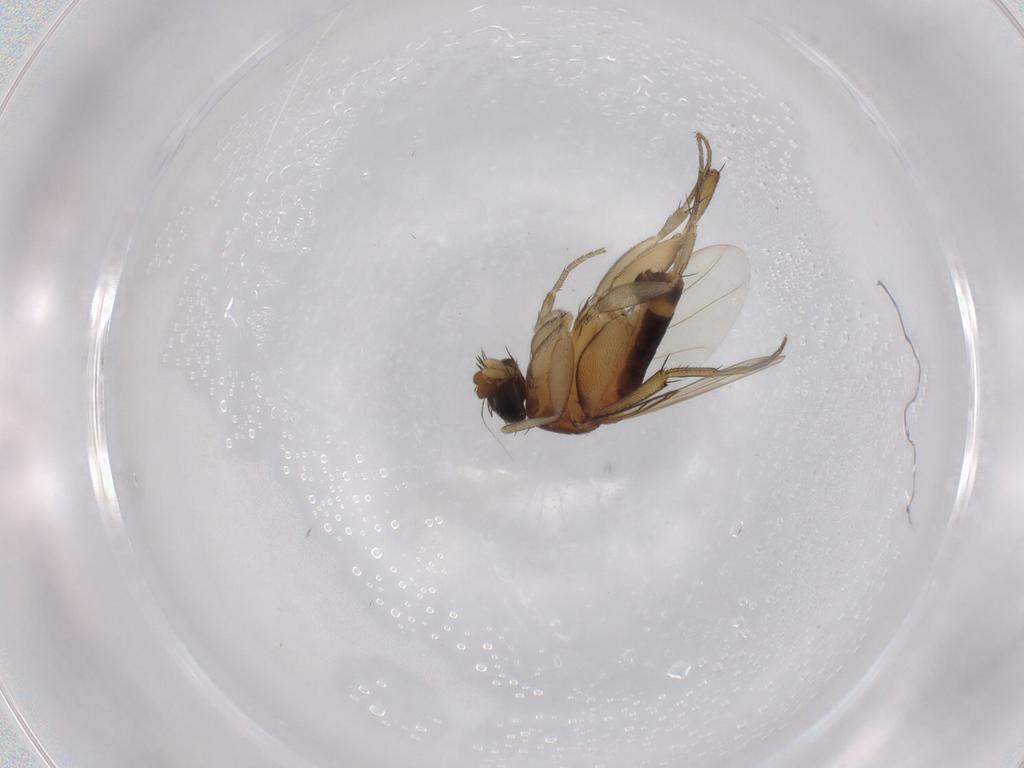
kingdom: Animalia
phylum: Arthropoda
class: Insecta
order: Diptera
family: Phoridae
